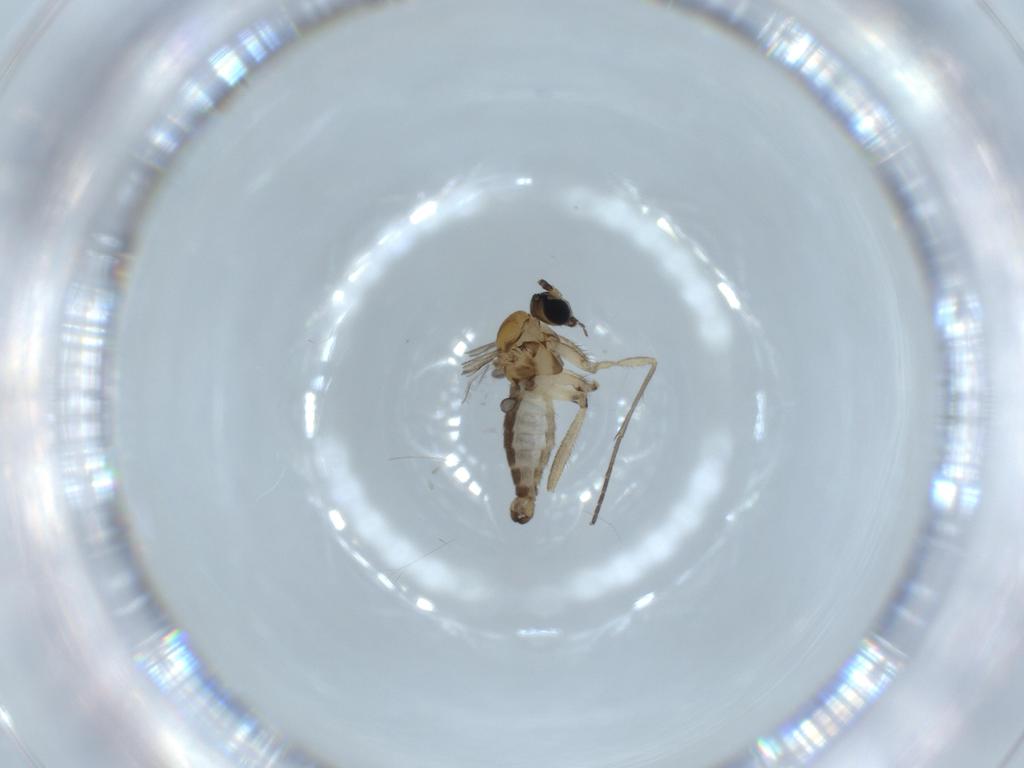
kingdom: Animalia
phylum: Arthropoda
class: Insecta
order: Diptera
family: Sciaridae
